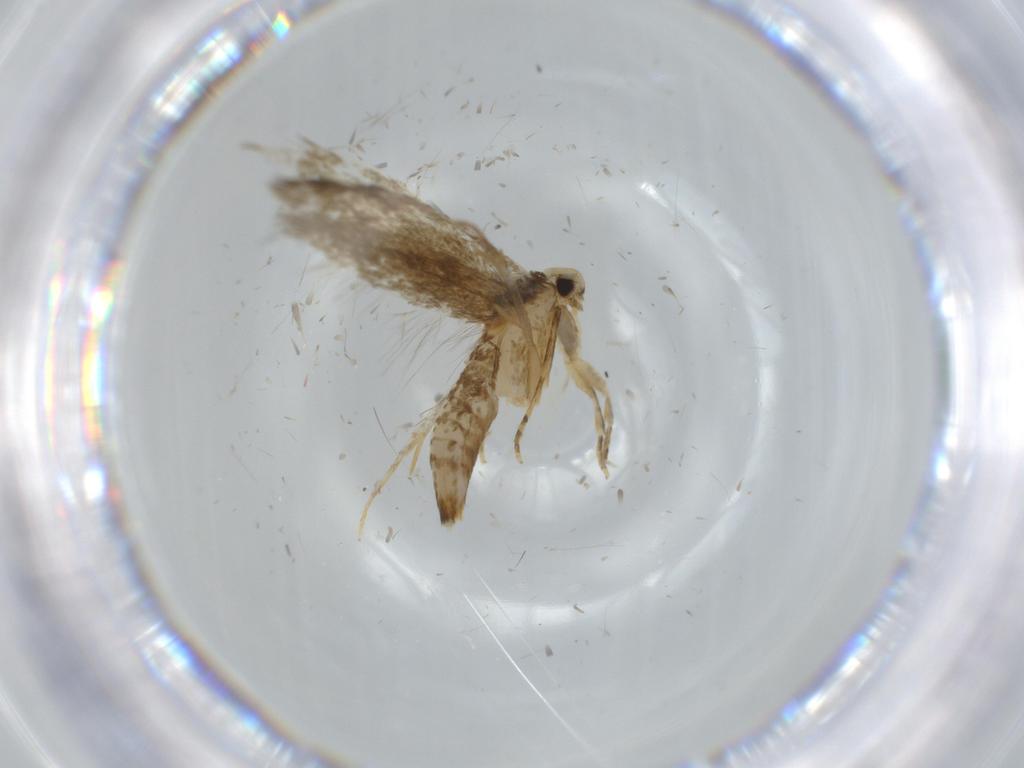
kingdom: Animalia
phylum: Arthropoda
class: Insecta
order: Lepidoptera
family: Tineidae
